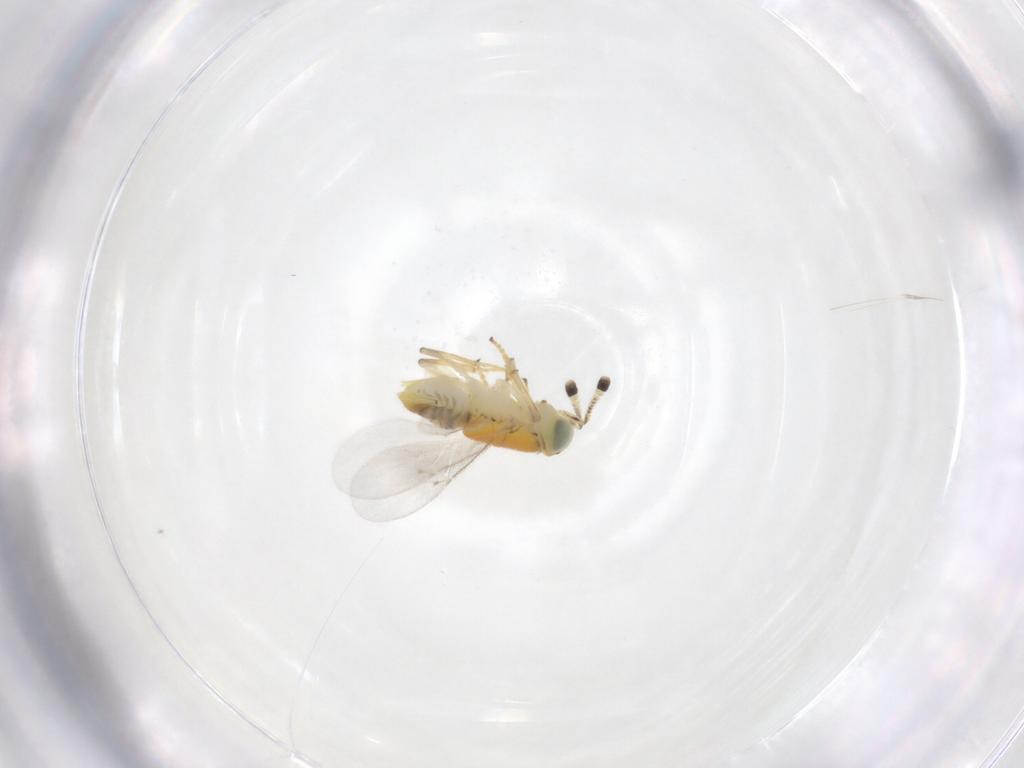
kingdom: Animalia
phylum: Arthropoda
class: Insecta
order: Hymenoptera
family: Encyrtidae
